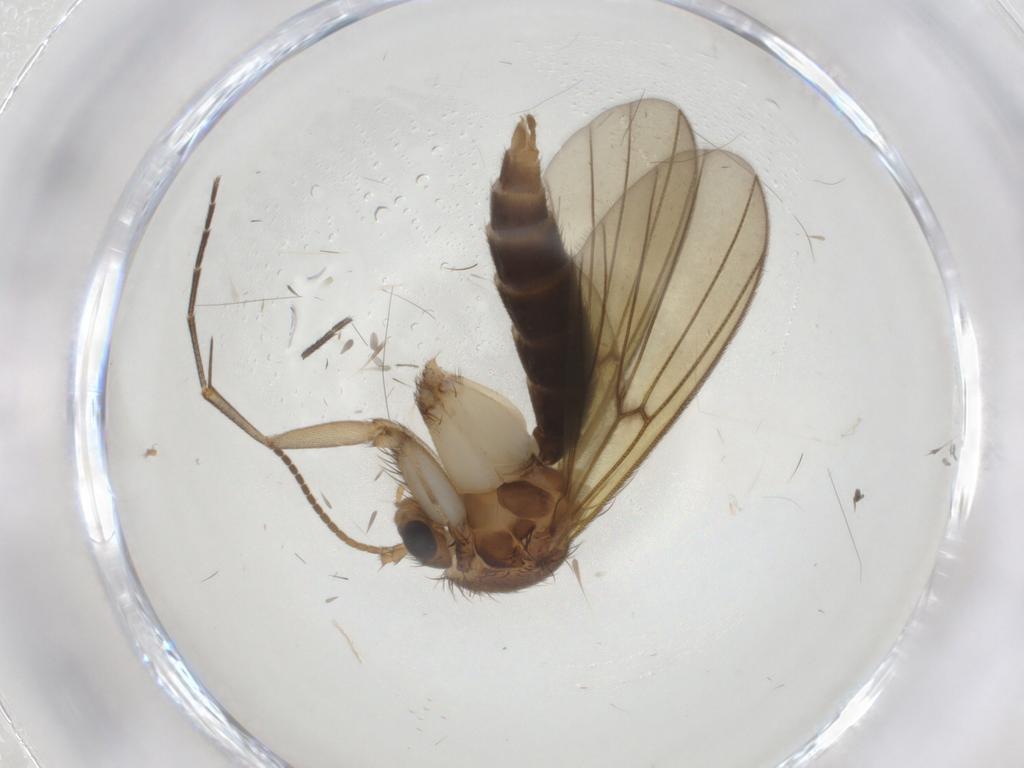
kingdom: Animalia
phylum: Arthropoda
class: Insecta
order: Diptera
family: Mycetophilidae
